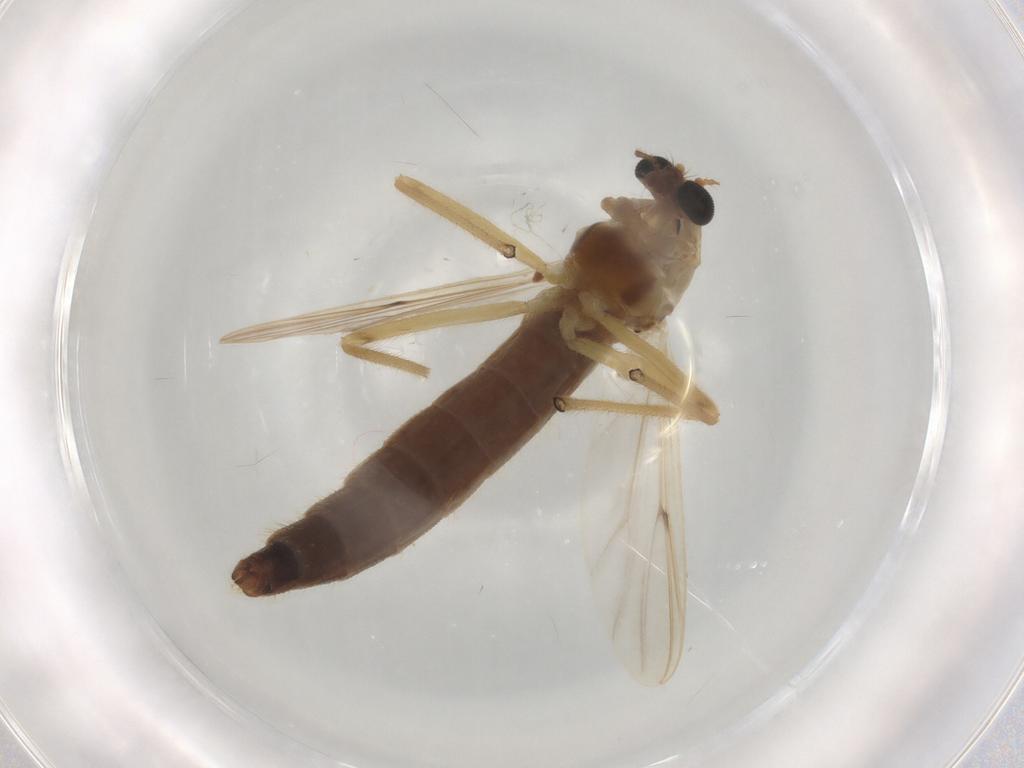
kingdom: Animalia
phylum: Arthropoda
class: Insecta
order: Diptera
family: Chironomidae
